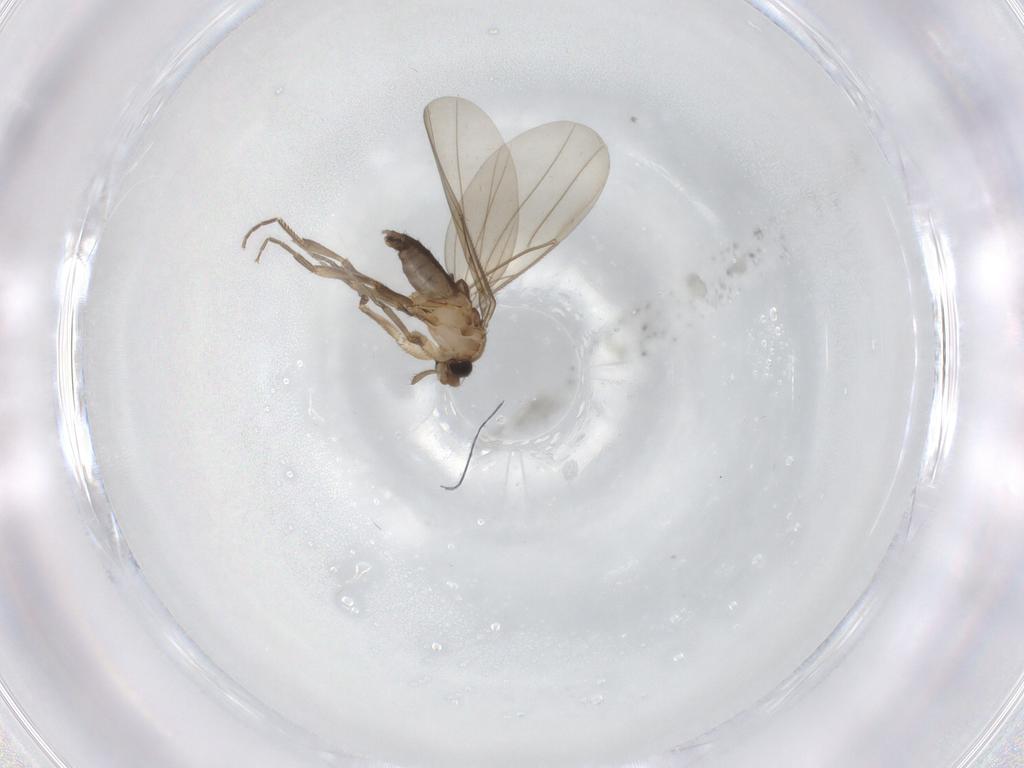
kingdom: Animalia
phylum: Arthropoda
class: Insecta
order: Diptera
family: Phoridae
